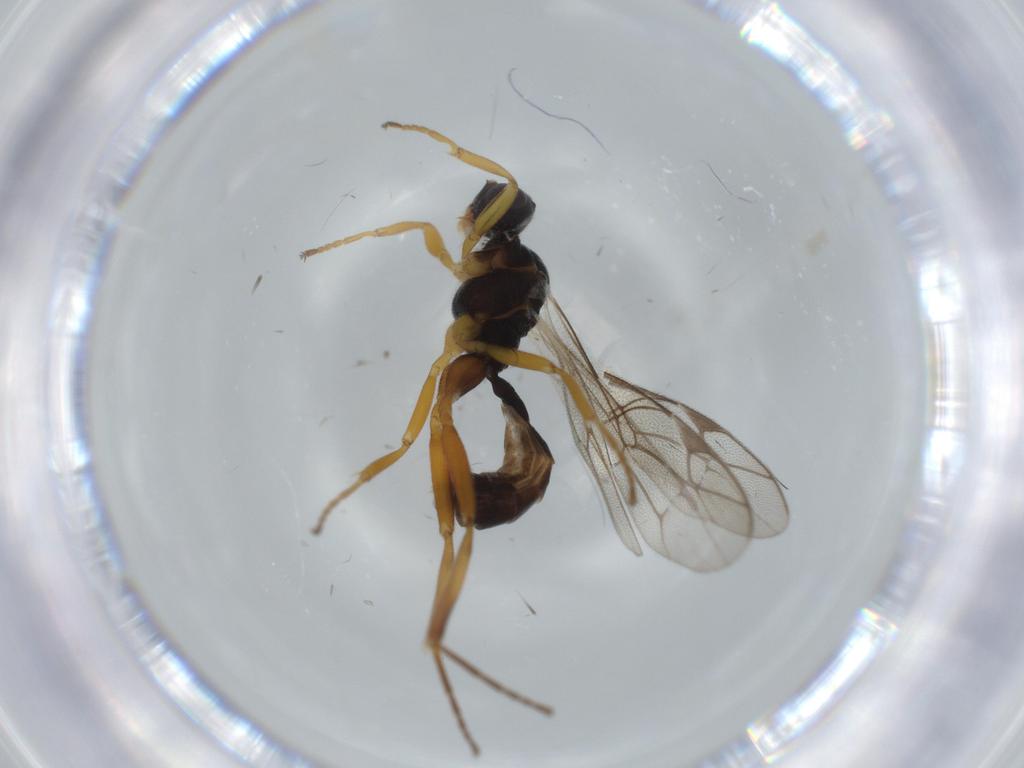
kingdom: Animalia
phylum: Arthropoda
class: Insecta
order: Hymenoptera
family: Ichneumonidae
